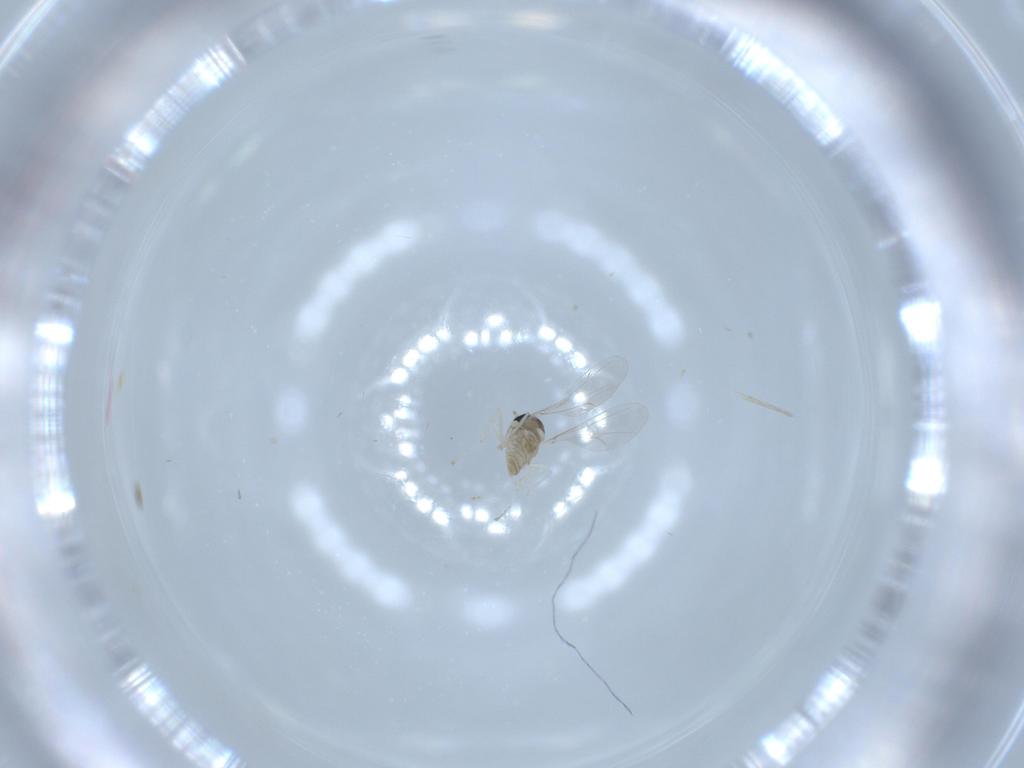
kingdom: Animalia
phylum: Arthropoda
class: Insecta
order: Diptera
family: Cecidomyiidae
